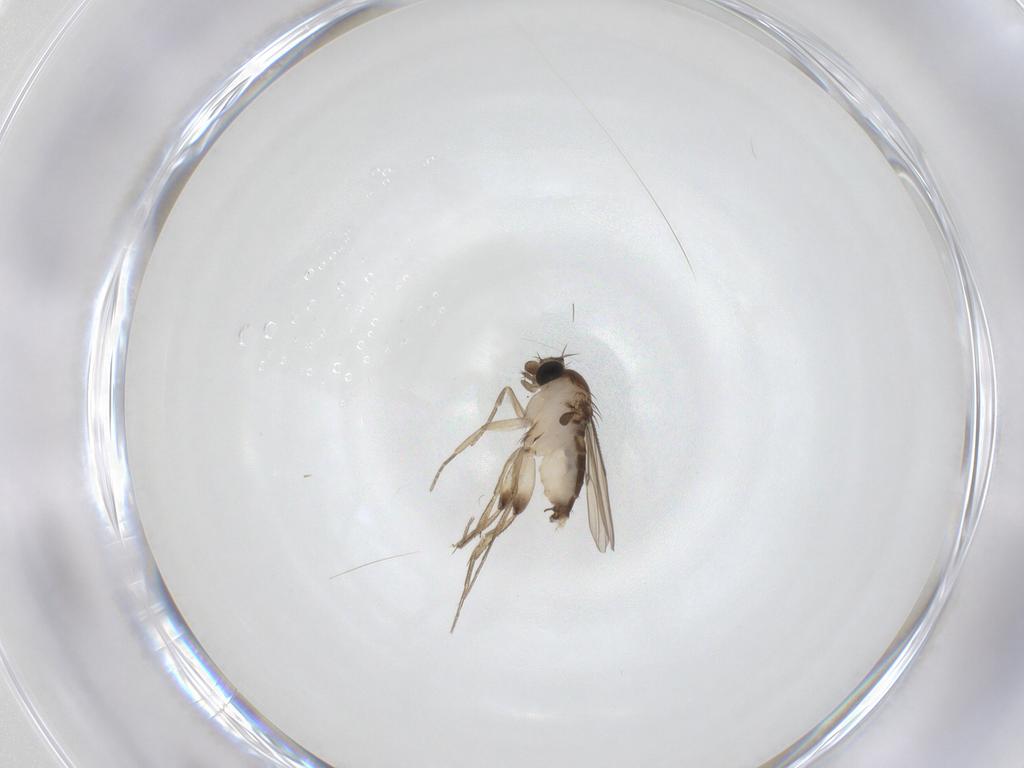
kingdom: Animalia
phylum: Arthropoda
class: Insecta
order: Diptera
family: Phoridae
